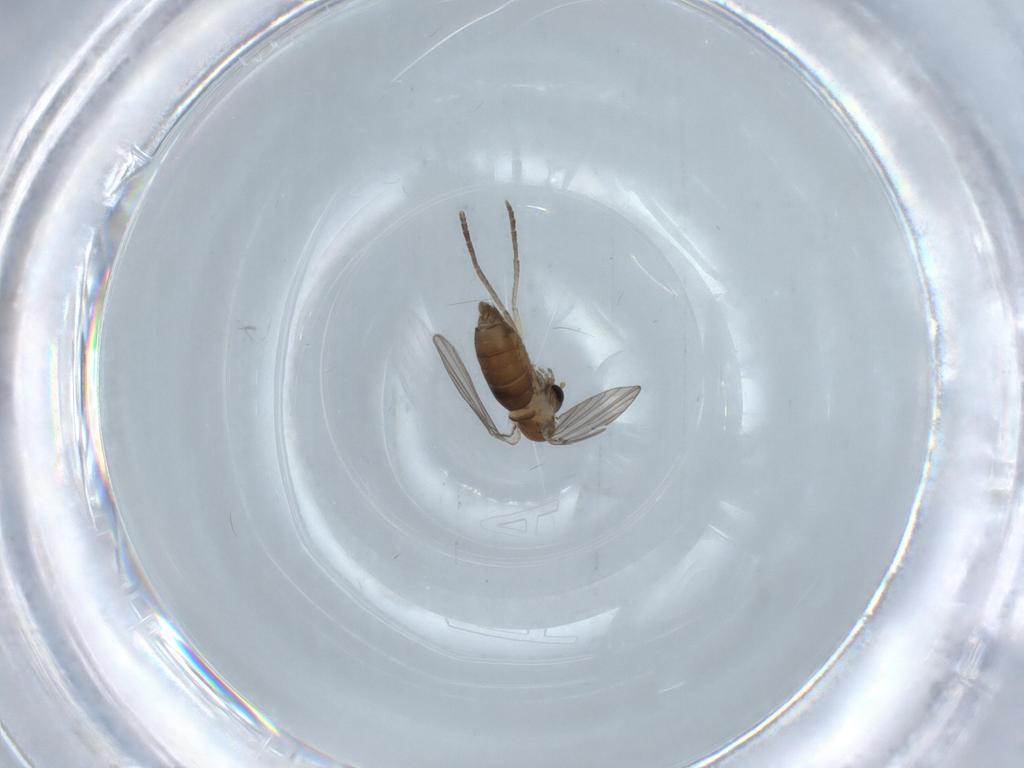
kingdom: Animalia
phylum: Arthropoda
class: Insecta
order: Diptera
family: Psychodidae
